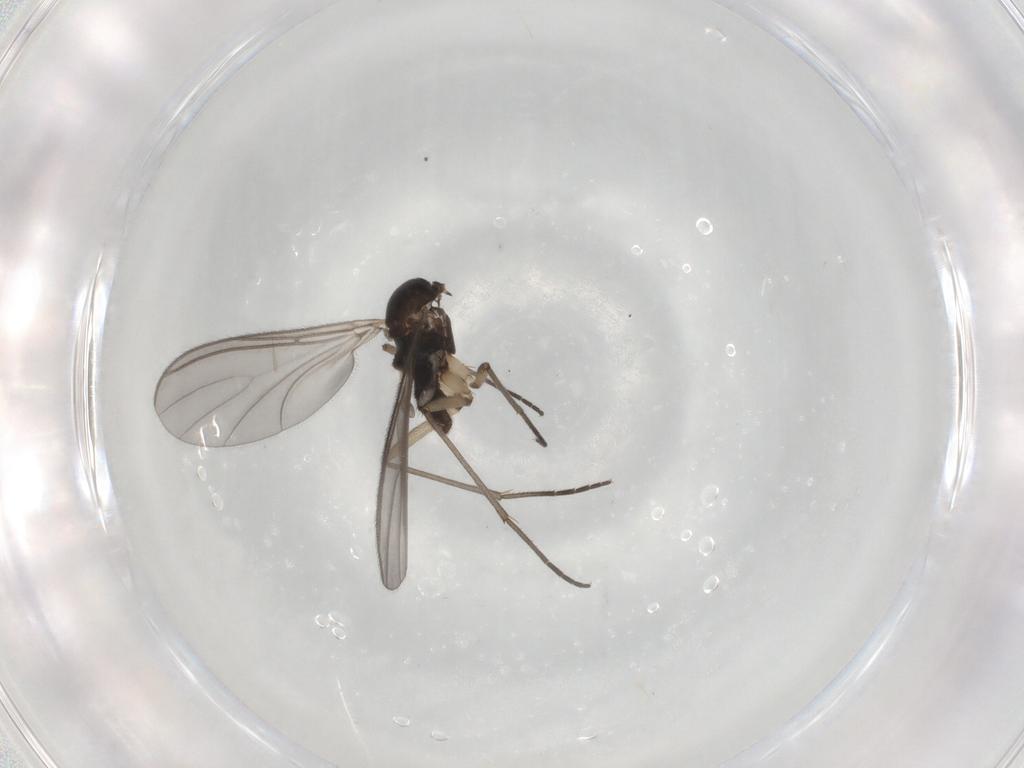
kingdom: Animalia
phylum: Arthropoda
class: Insecta
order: Diptera
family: Sciaridae
